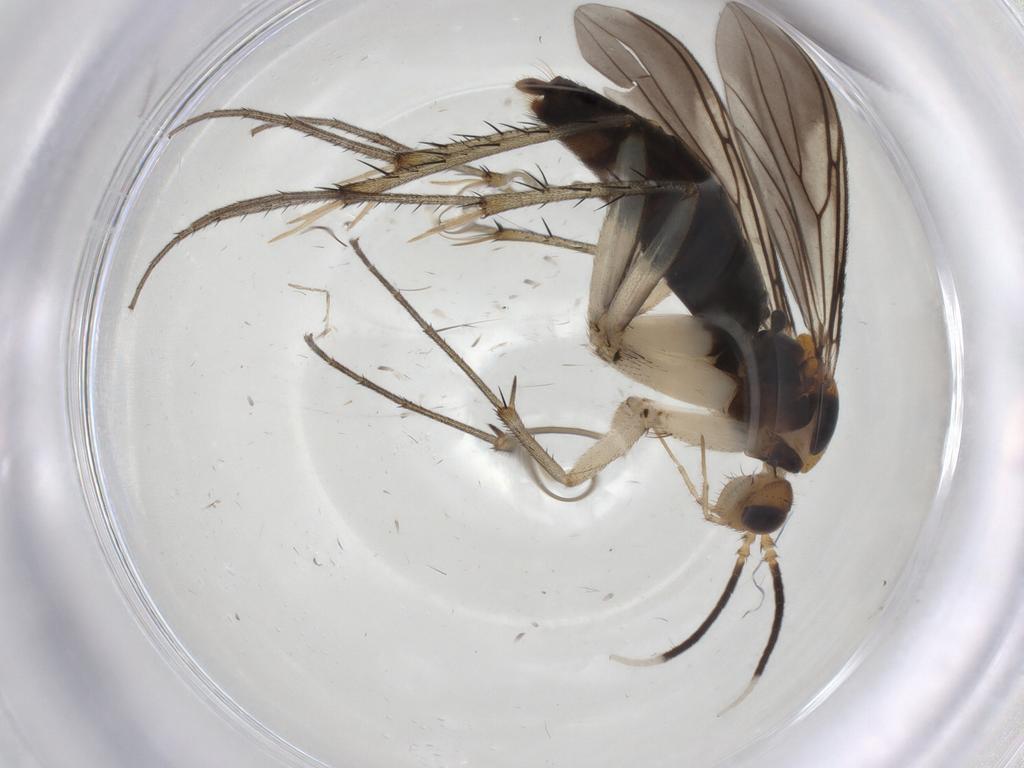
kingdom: Animalia
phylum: Arthropoda
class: Insecta
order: Diptera
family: Mycetophilidae
